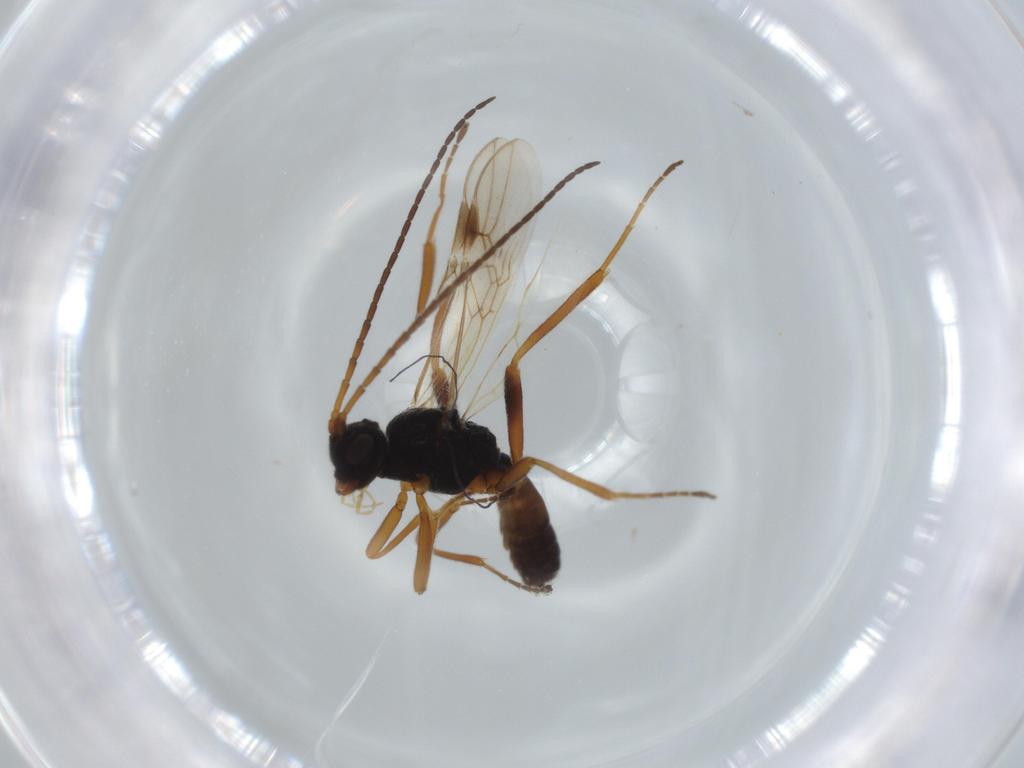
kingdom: Animalia
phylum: Arthropoda
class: Insecta
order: Hymenoptera
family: Braconidae
